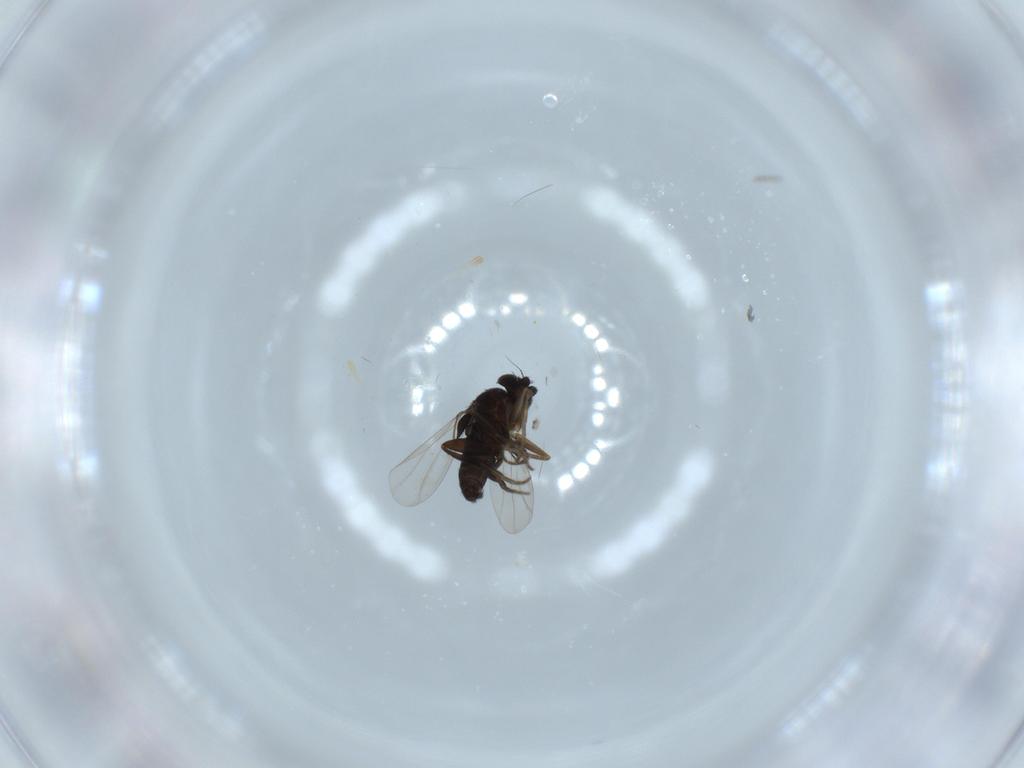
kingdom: Animalia
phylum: Arthropoda
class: Insecta
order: Diptera
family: Phoridae
